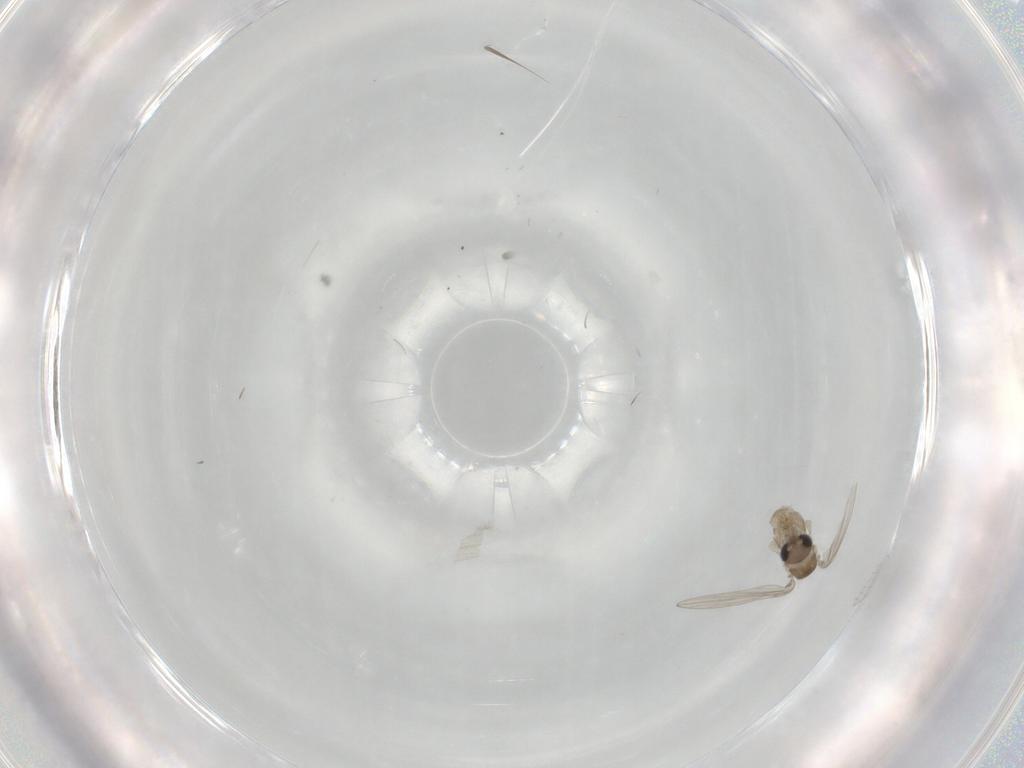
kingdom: Animalia
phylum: Arthropoda
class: Insecta
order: Diptera
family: Psychodidae
